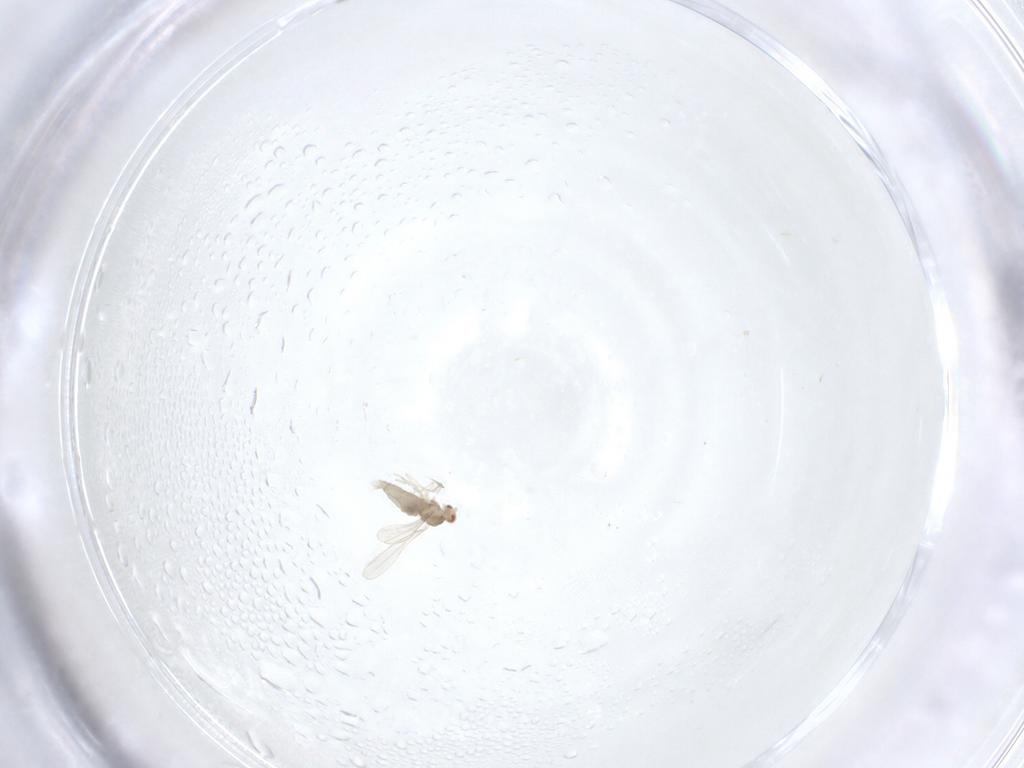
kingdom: Animalia
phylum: Arthropoda
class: Insecta
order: Diptera
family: Cecidomyiidae
